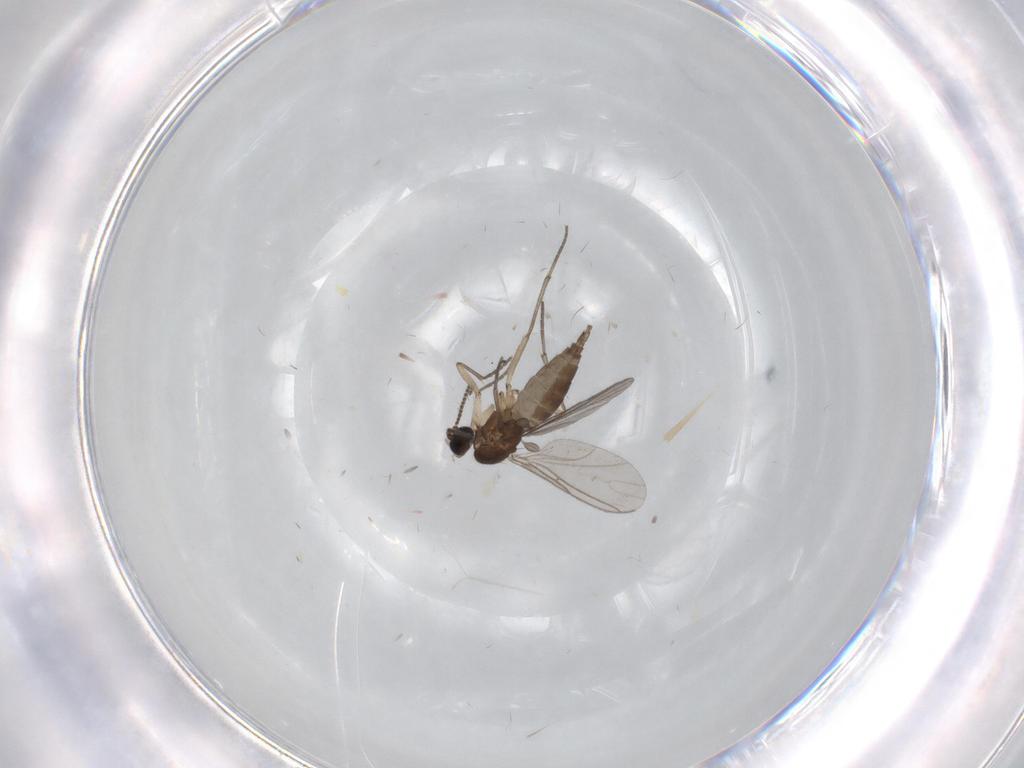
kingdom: Animalia
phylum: Arthropoda
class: Insecta
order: Diptera
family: Sciaridae
